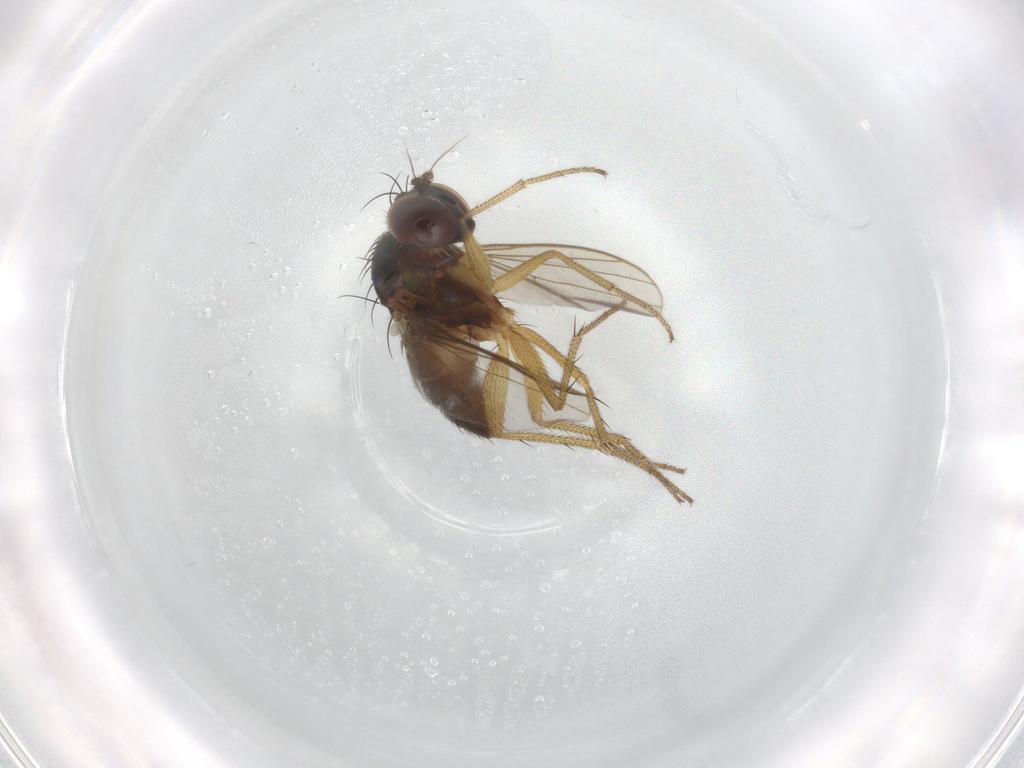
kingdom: Animalia
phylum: Arthropoda
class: Insecta
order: Diptera
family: Dolichopodidae
